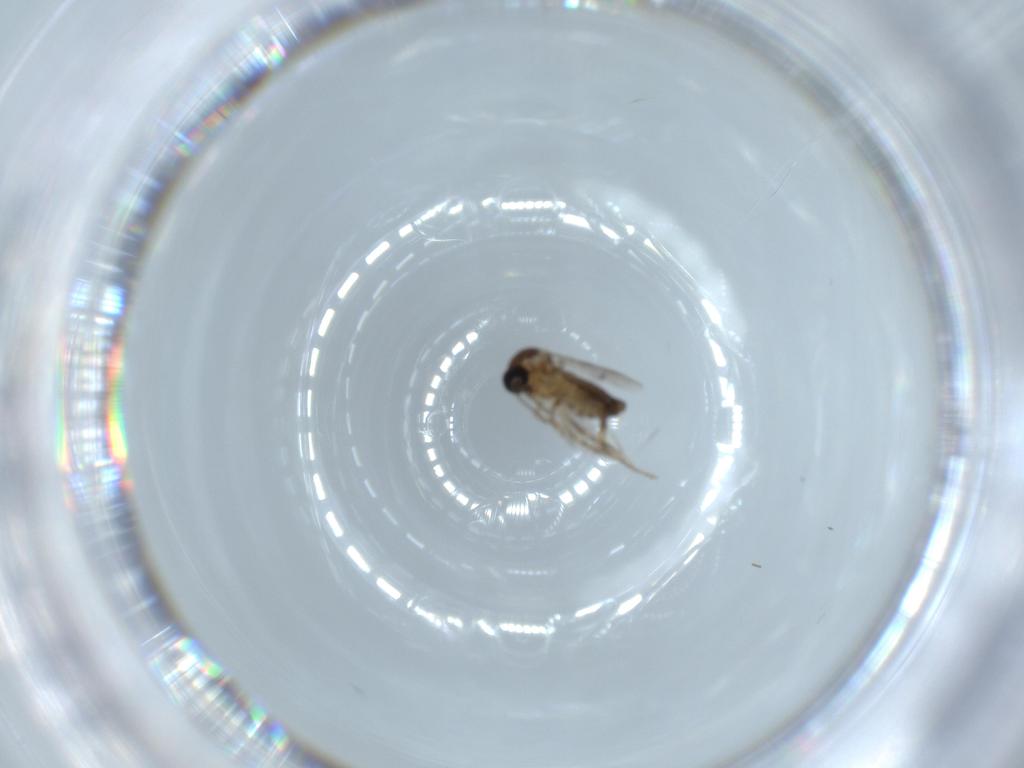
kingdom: Animalia
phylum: Arthropoda
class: Insecta
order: Diptera
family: Ceratopogonidae
